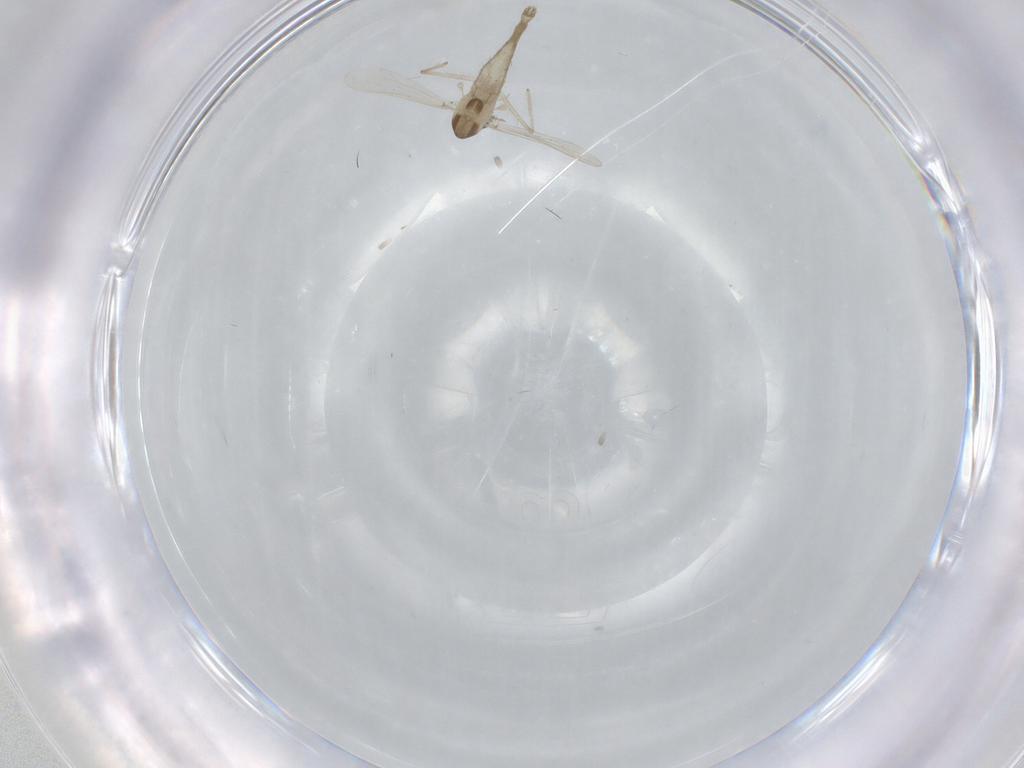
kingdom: Animalia
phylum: Arthropoda
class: Insecta
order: Diptera
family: Chironomidae
